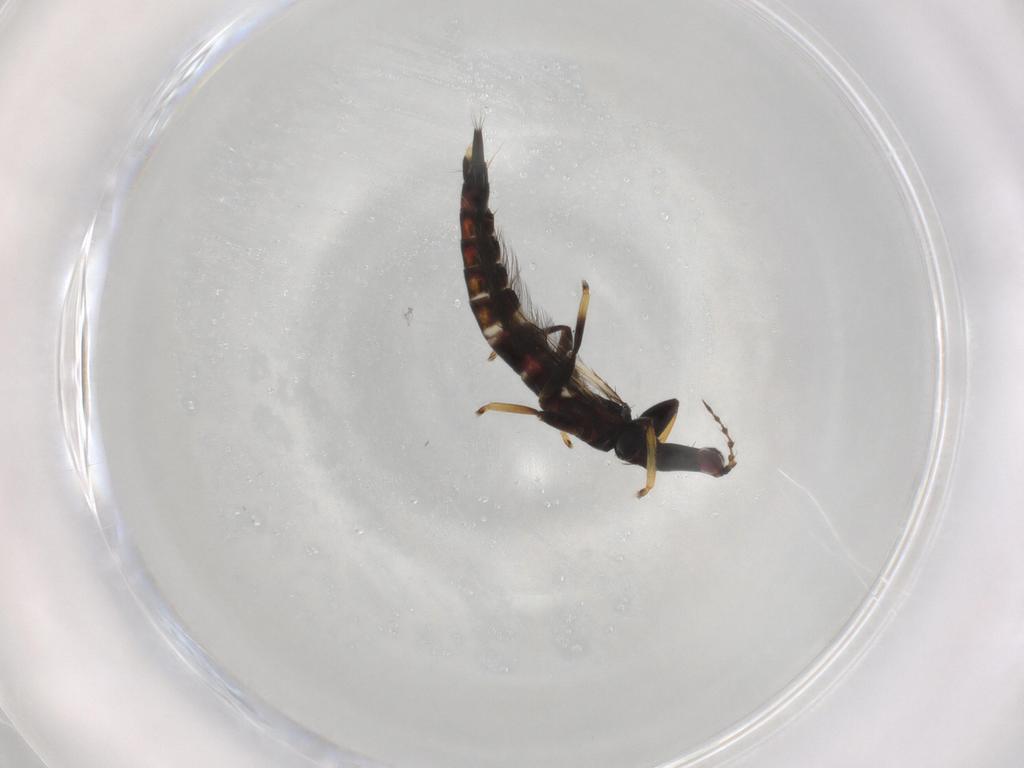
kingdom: Animalia
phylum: Arthropoda
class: Insecta
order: Thysanoptera
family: Phlaeothripidae
